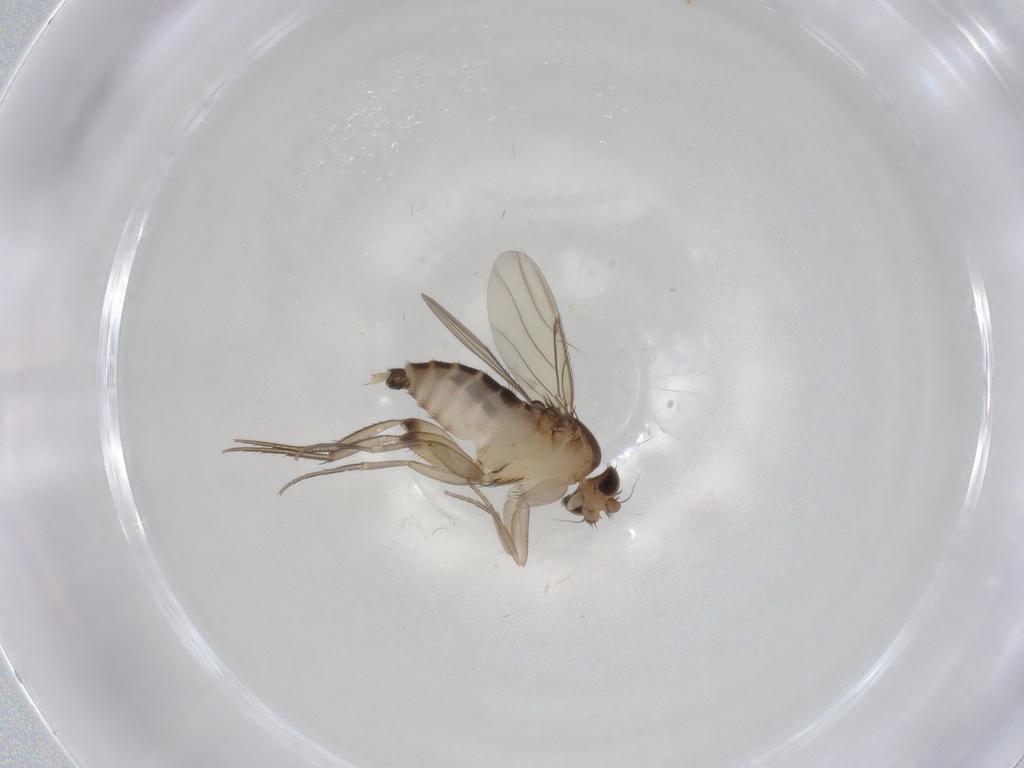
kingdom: Animalia
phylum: Arthropoda
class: Insecta
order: Diptera
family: Phoridae
